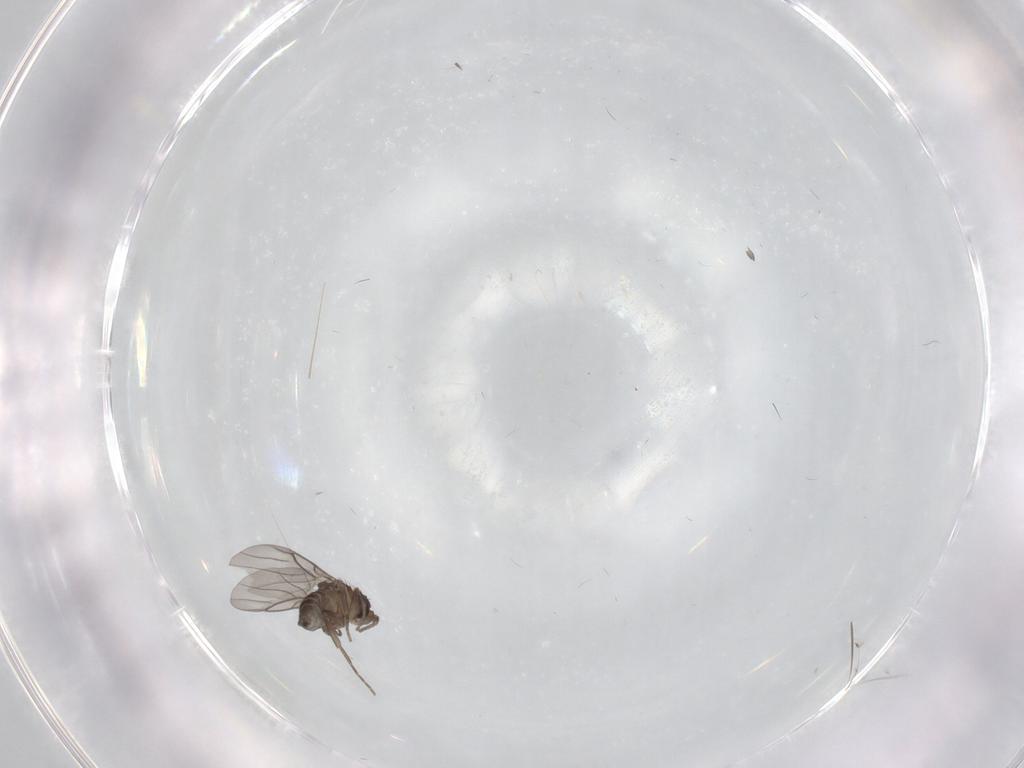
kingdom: Animalia
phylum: Arthropoda
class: Insecta
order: Diptera
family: Chironomidae
